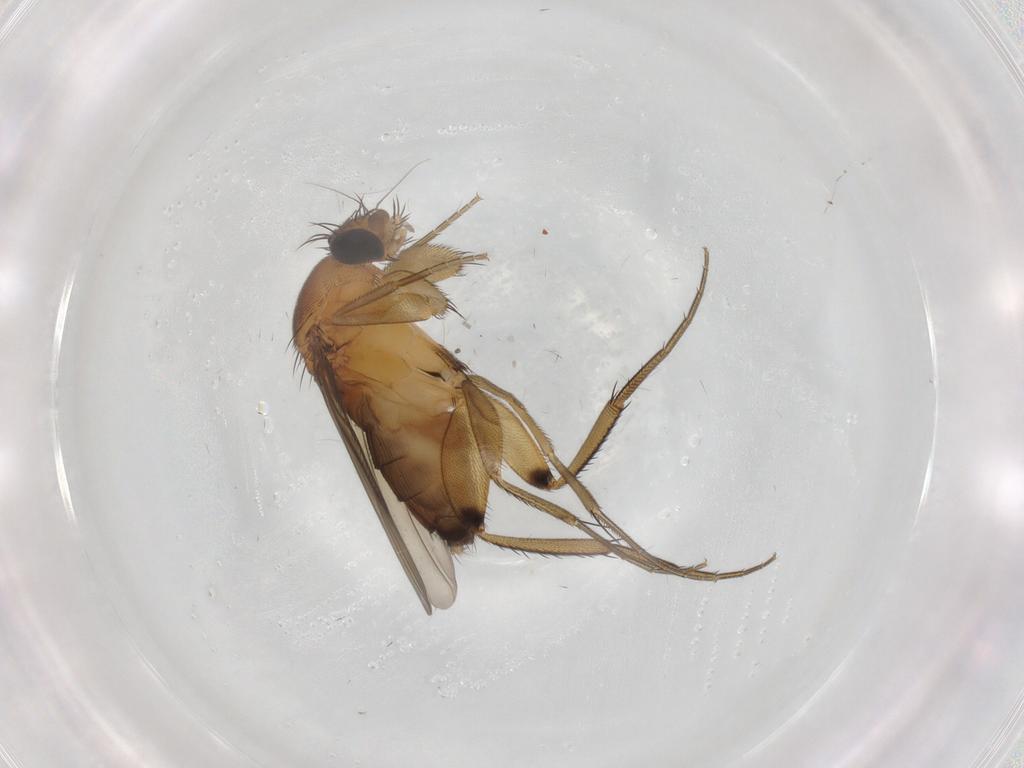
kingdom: Animalia
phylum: Arthropoda
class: Insecta
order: Diptera
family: Phoridae
